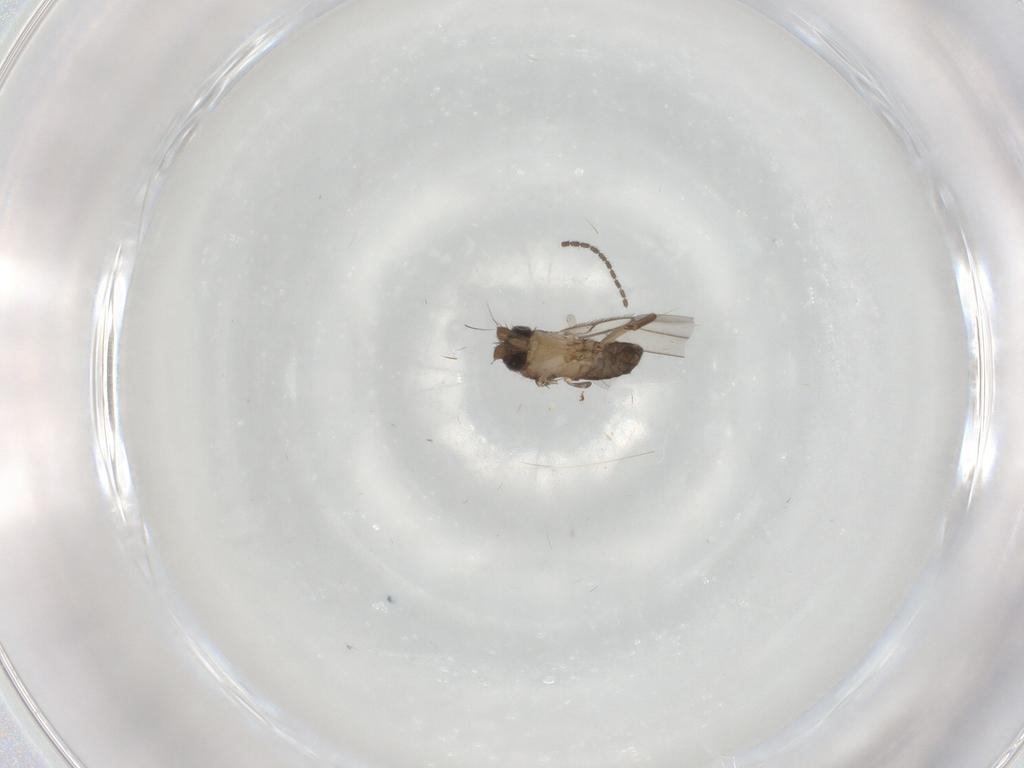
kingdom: Animalia
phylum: Arthropoda
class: Insecta
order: Diptera
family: Sciaridae
